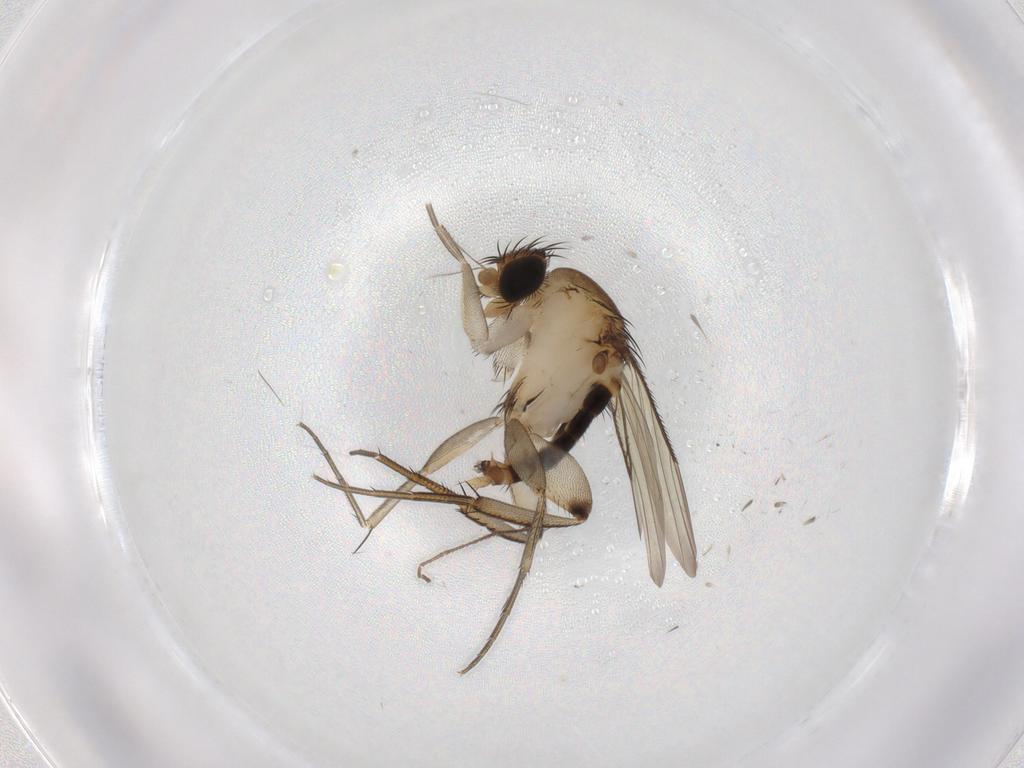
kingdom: Animalia
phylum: Arthropoda
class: Insecta
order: Diptera
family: Phoridae
